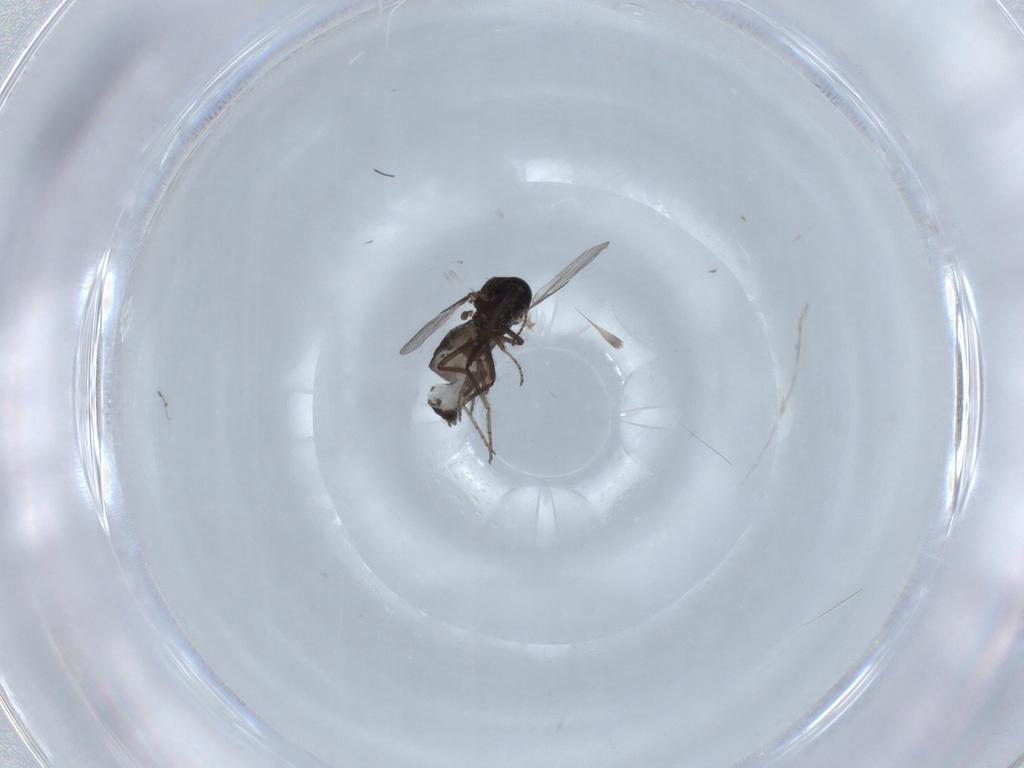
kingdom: Animalia
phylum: Arthropoda
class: Insecta
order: Diptera
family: Ceratopogonidae
